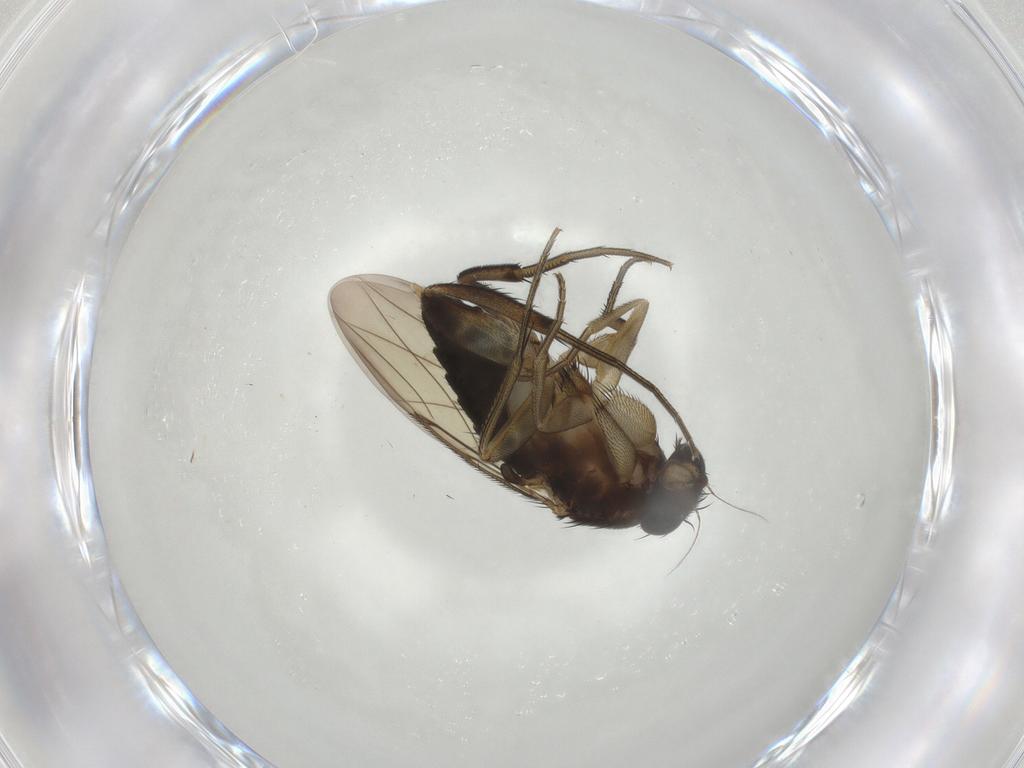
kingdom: Animalia
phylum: Arthropoda
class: Insecta
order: Diptera
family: Phoridae
